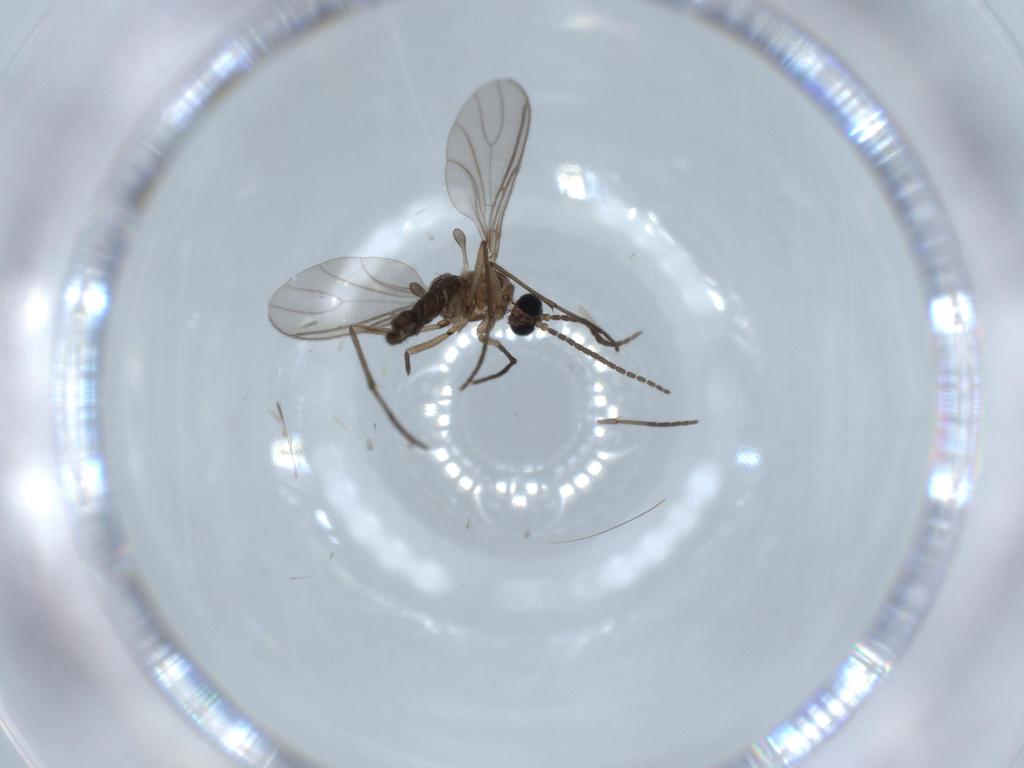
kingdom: Animalia
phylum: Arthropoda
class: Insecta
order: Diptera
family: Sciaridae
